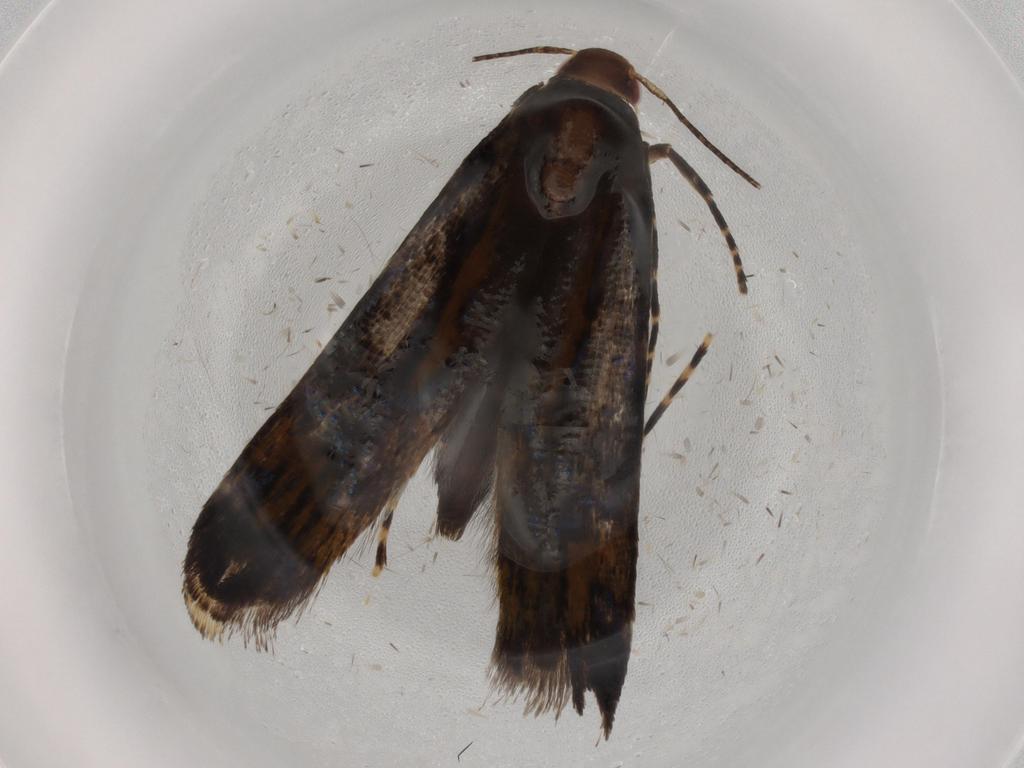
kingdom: Animalia
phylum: Arthropoda
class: Insecta
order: Lepidoptera
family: Gelechiidae
